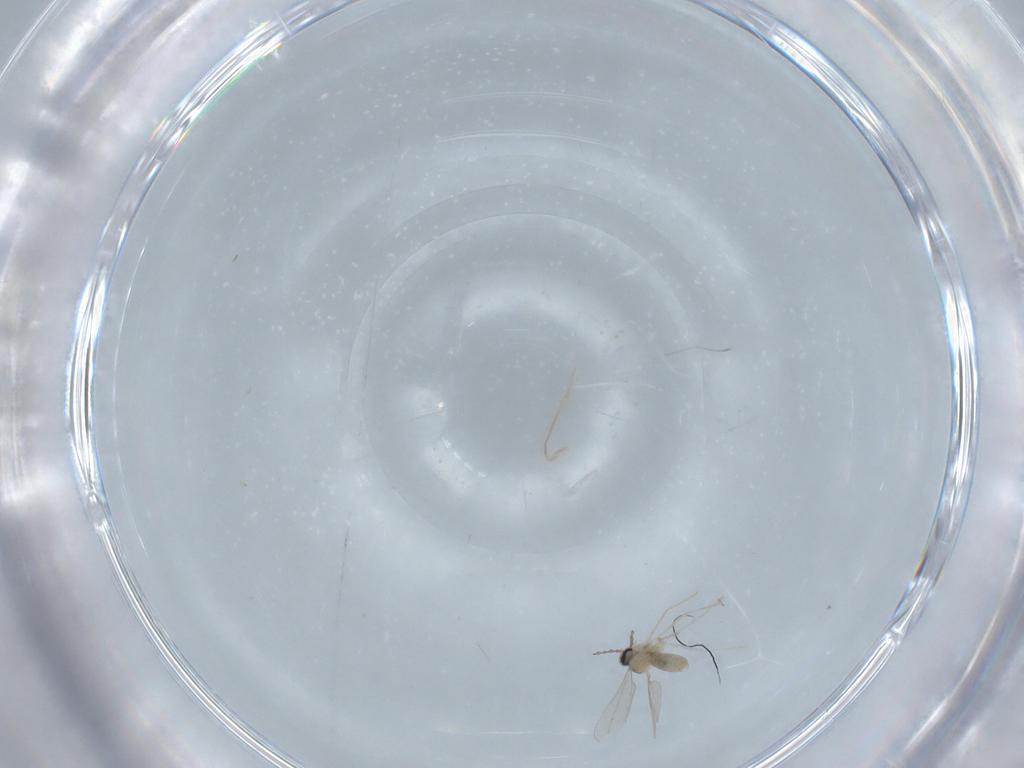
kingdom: Animalia
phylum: Arthropoda
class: Insecta
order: Diptera
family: Cecidomyiidae
